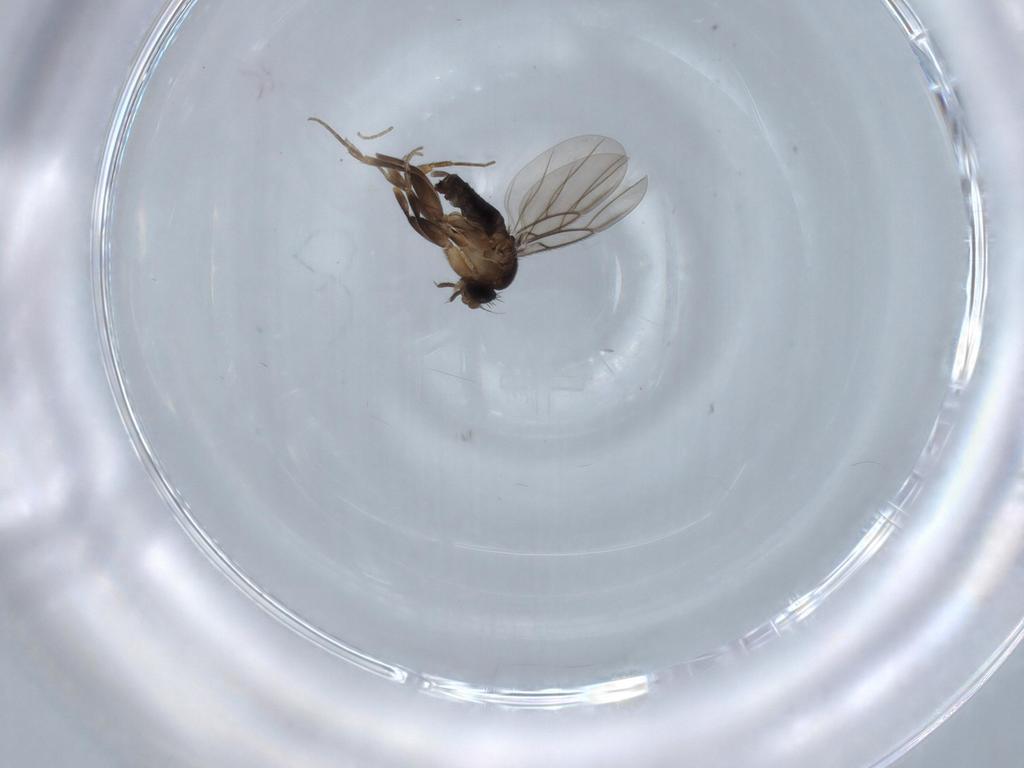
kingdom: Animalia
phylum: Arthropoda
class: Insecta
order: Diptera
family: Phoridae
